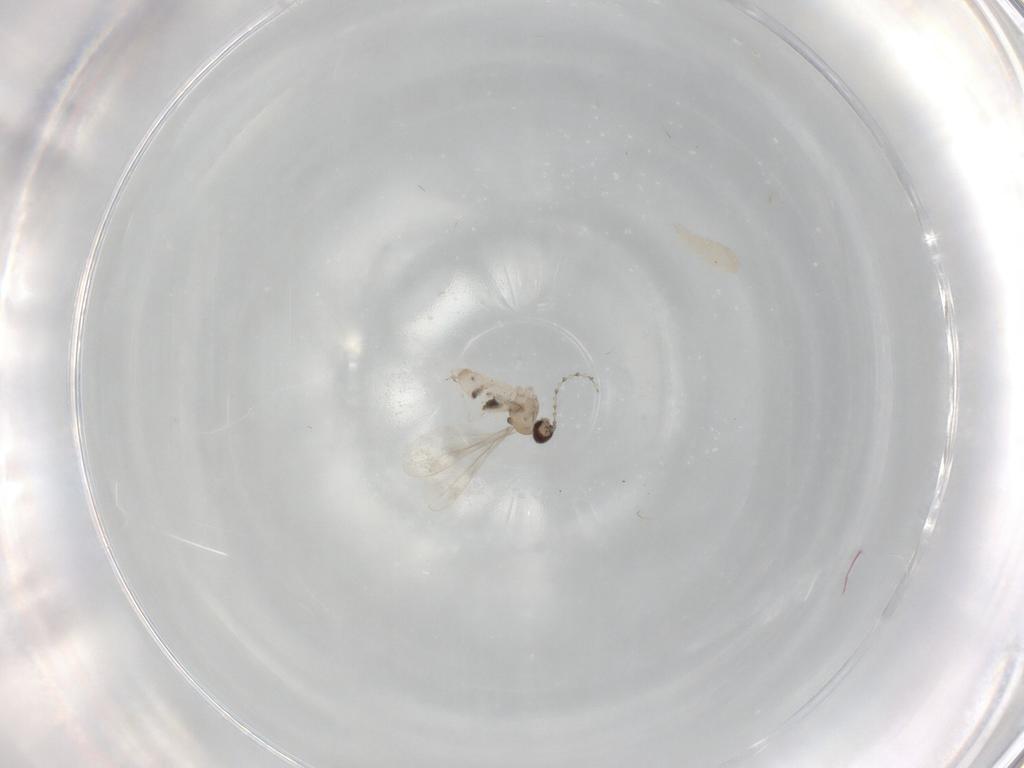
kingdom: Animalia
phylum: Arthropoda
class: Insecta
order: Diptera
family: Cecidomyiidae
